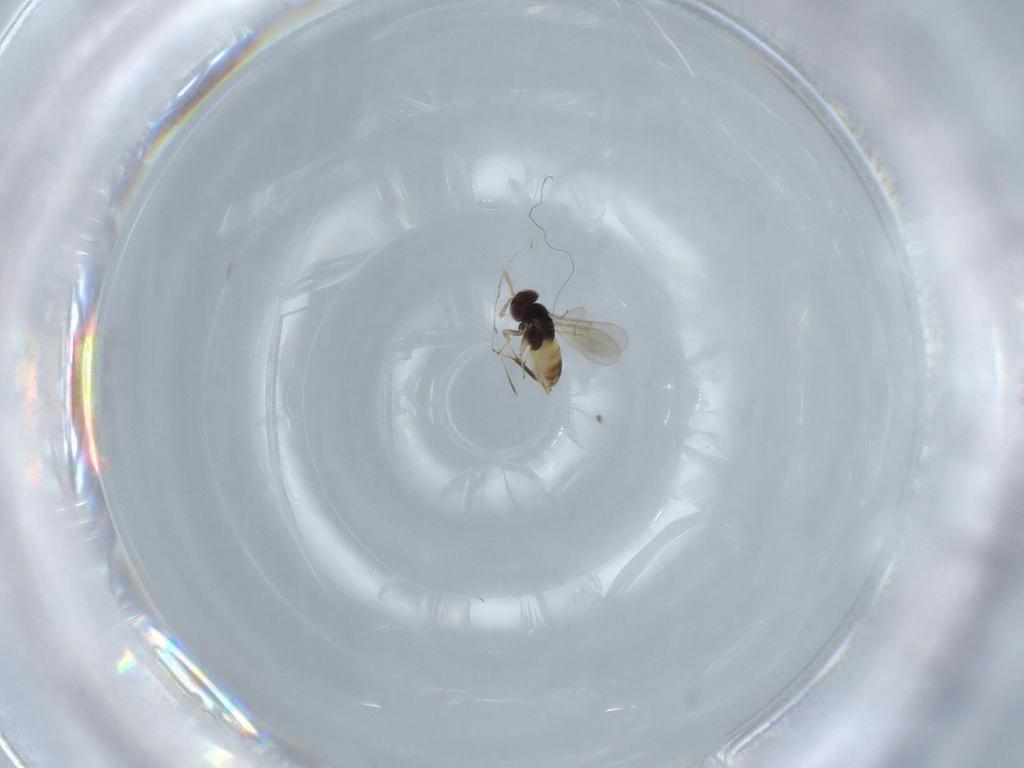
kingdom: Animalia
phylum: Arthropoda
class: Insecta
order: Hymenoptera
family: Aphelinidae
